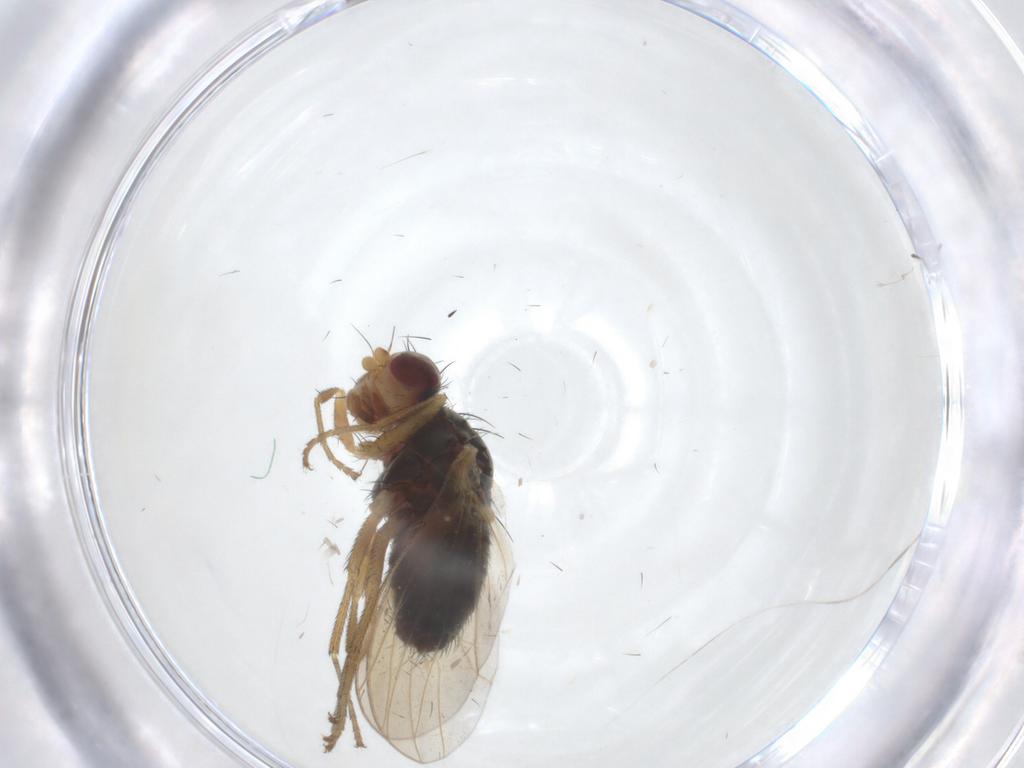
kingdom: Animalia
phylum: Arthropoda
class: Insecta
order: Diptera
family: Heleomyzidae
